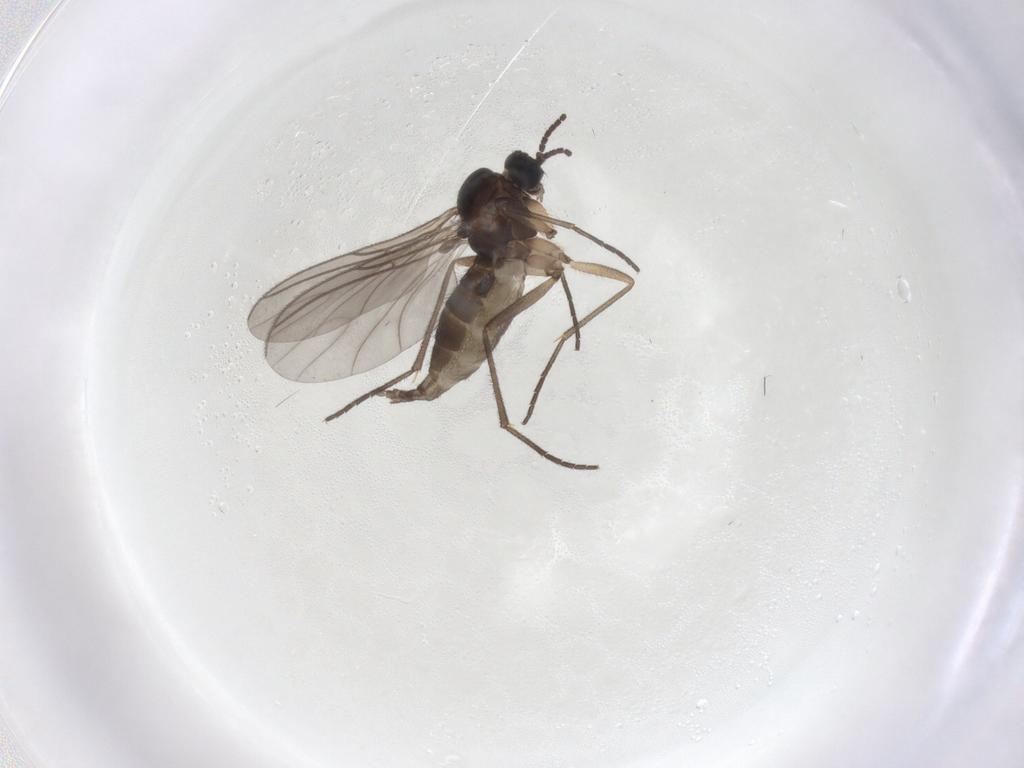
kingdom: Animalia
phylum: Arthropoda
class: Insecta
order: Diptera
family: Sciaridae
